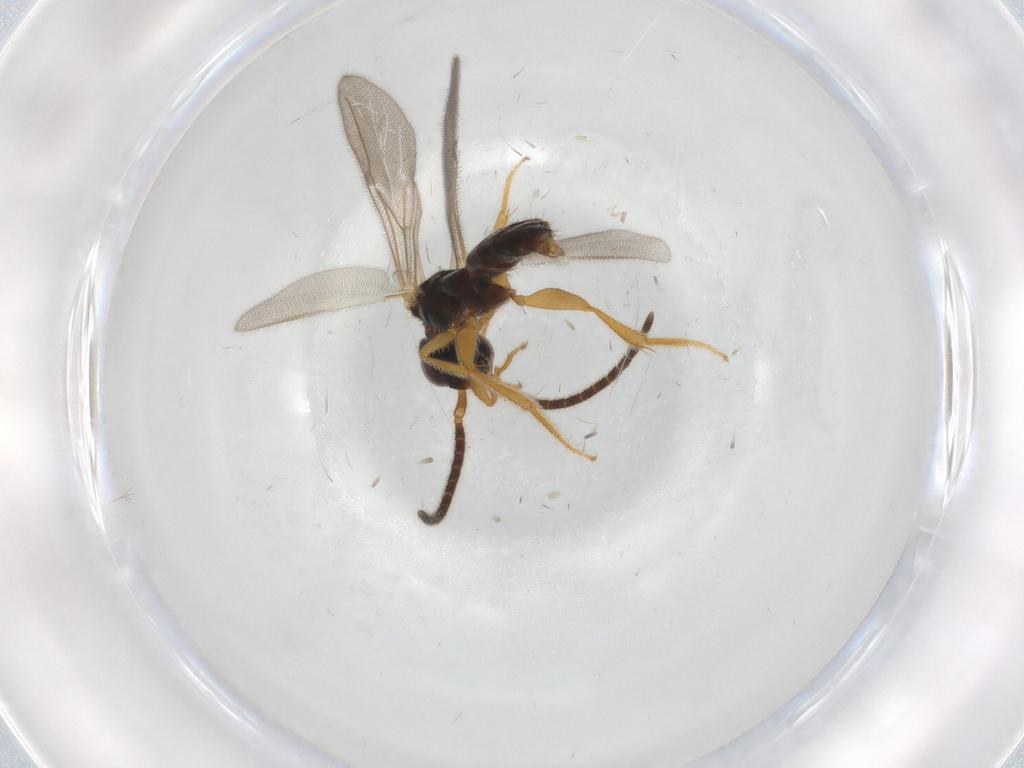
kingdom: Animalia
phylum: Arthropoda
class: Insecta
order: Hymenoptera
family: Bethylidae
